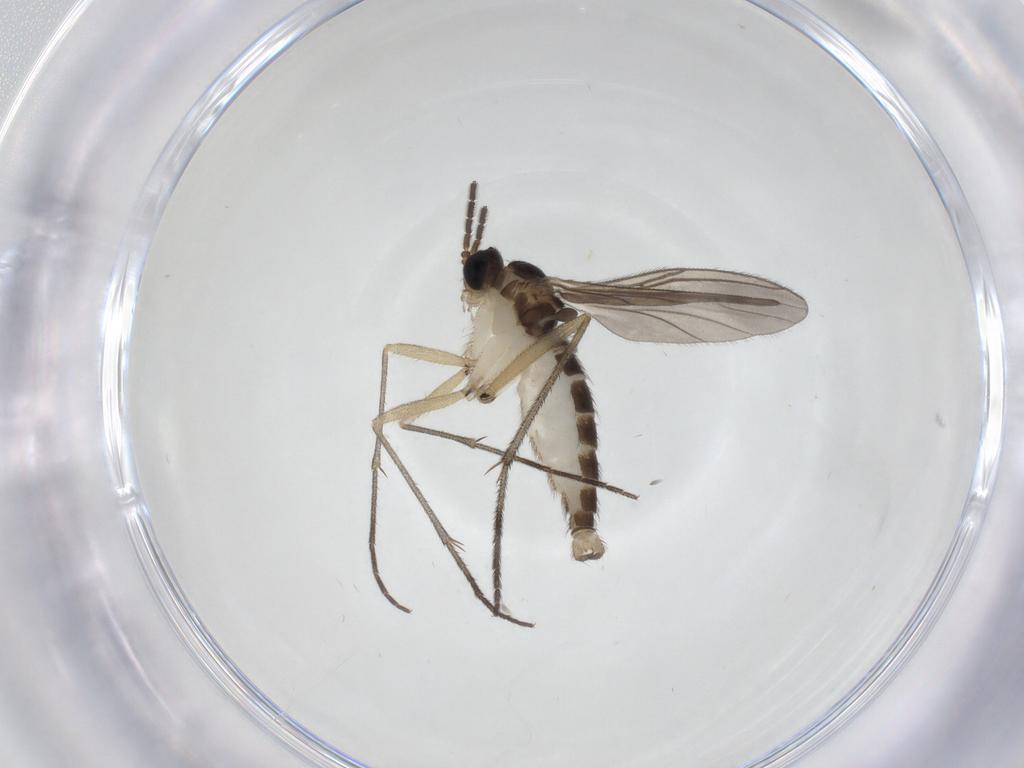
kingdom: Animalia
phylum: Arthropoda
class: Insecta
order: Diptera
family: Sciaridae
